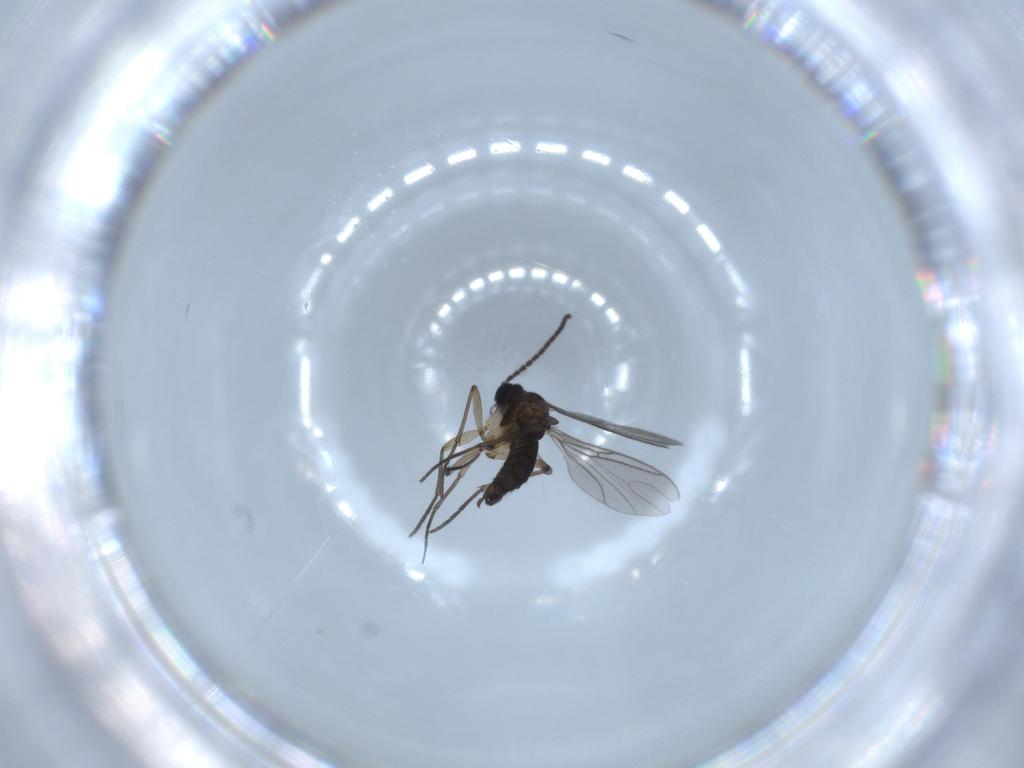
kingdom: Animalia
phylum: Arthropoda
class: Insecta
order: Diptera
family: Sciaridae
